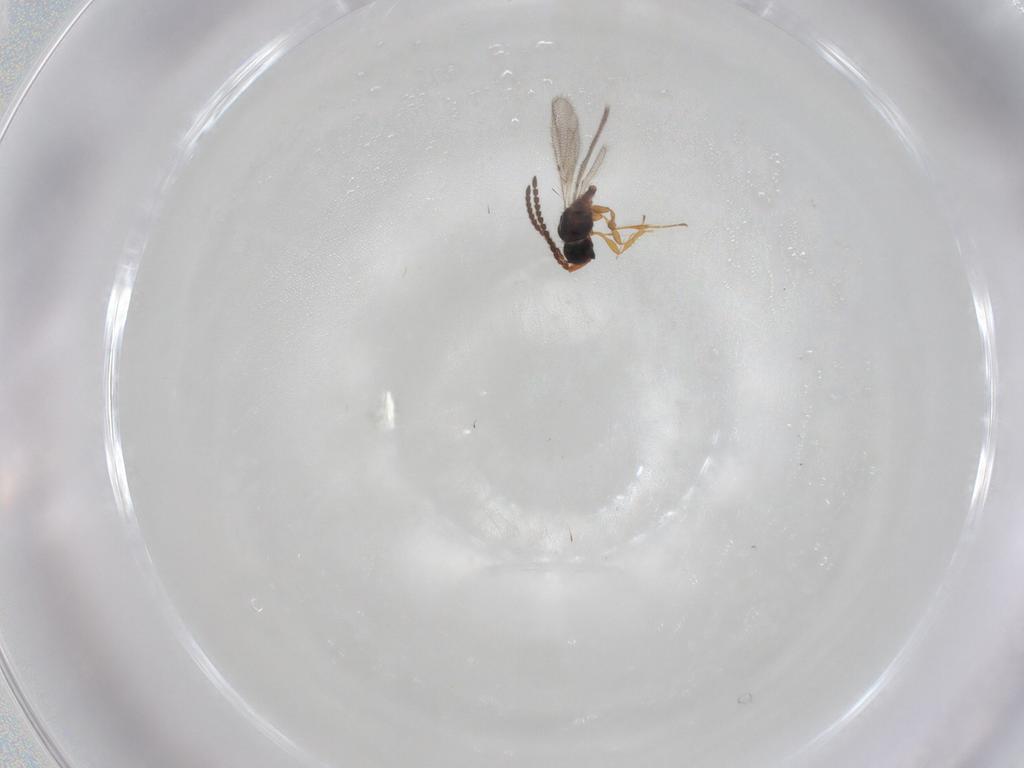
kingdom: Animalia
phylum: Arthropoda
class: Insecta
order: Hymenoptera
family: Diapriidae
